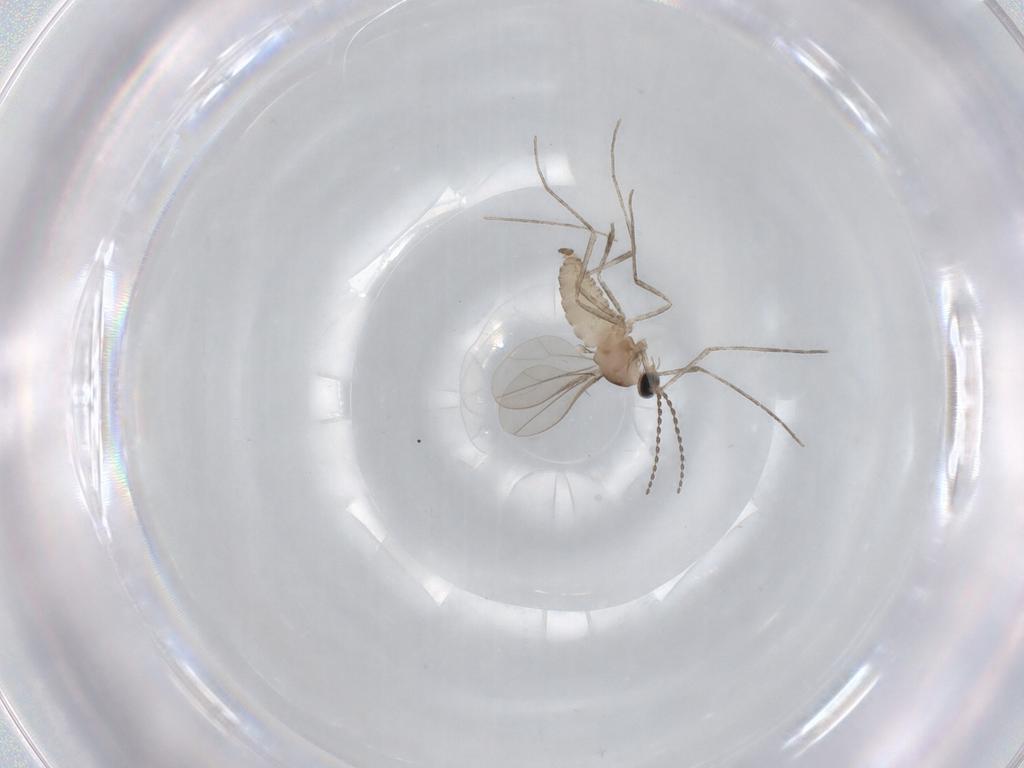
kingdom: Animalia
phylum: Arthropoda
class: Insecta
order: Diptera
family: Cecidomyiidae
